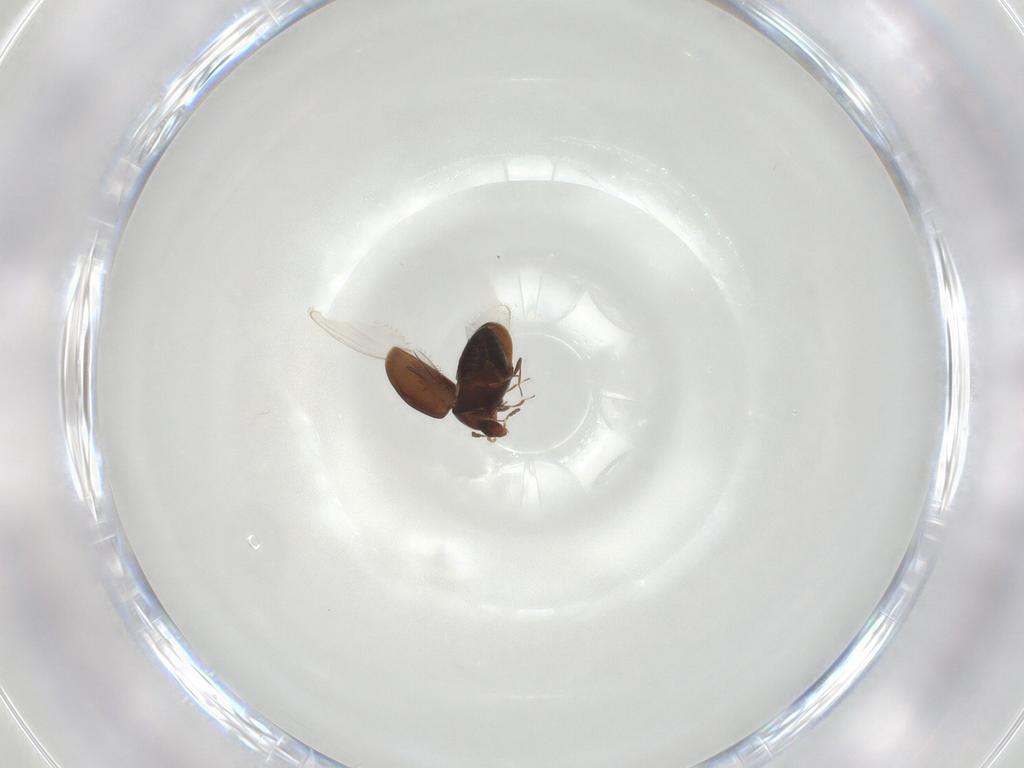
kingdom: Animalia
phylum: Arthropoda
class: Insecta
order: Coleoptera
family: Corylophidae
